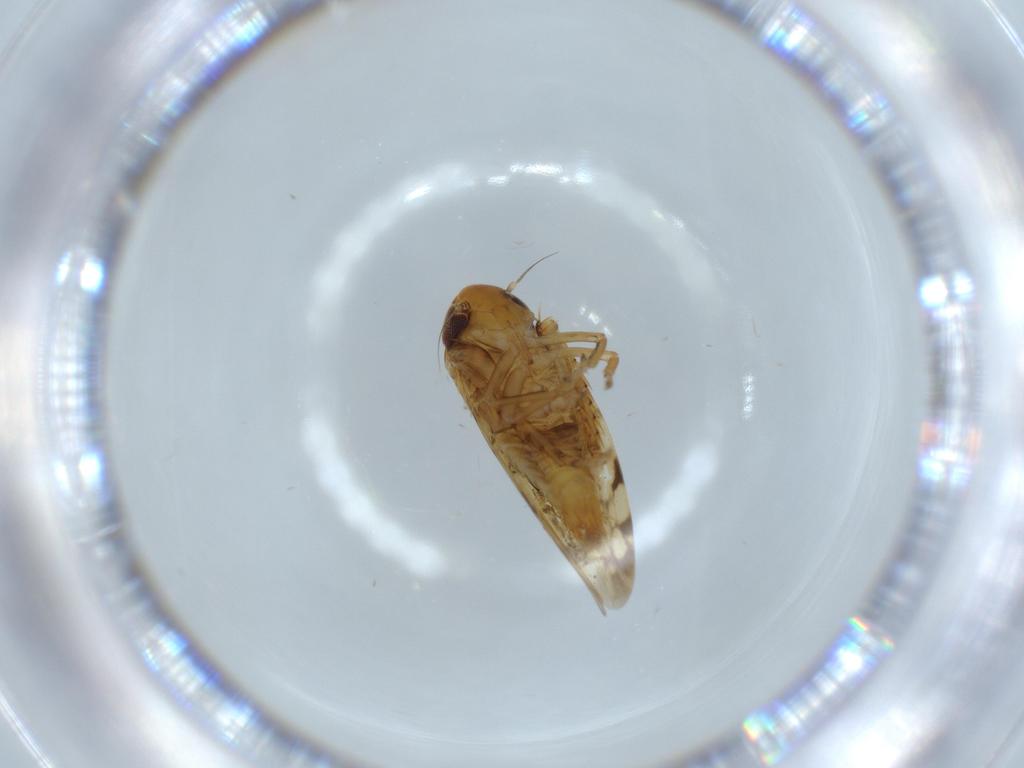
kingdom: Animalia
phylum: Arthropoda
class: Insecta
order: Hemiptera
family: Cicadellidae
